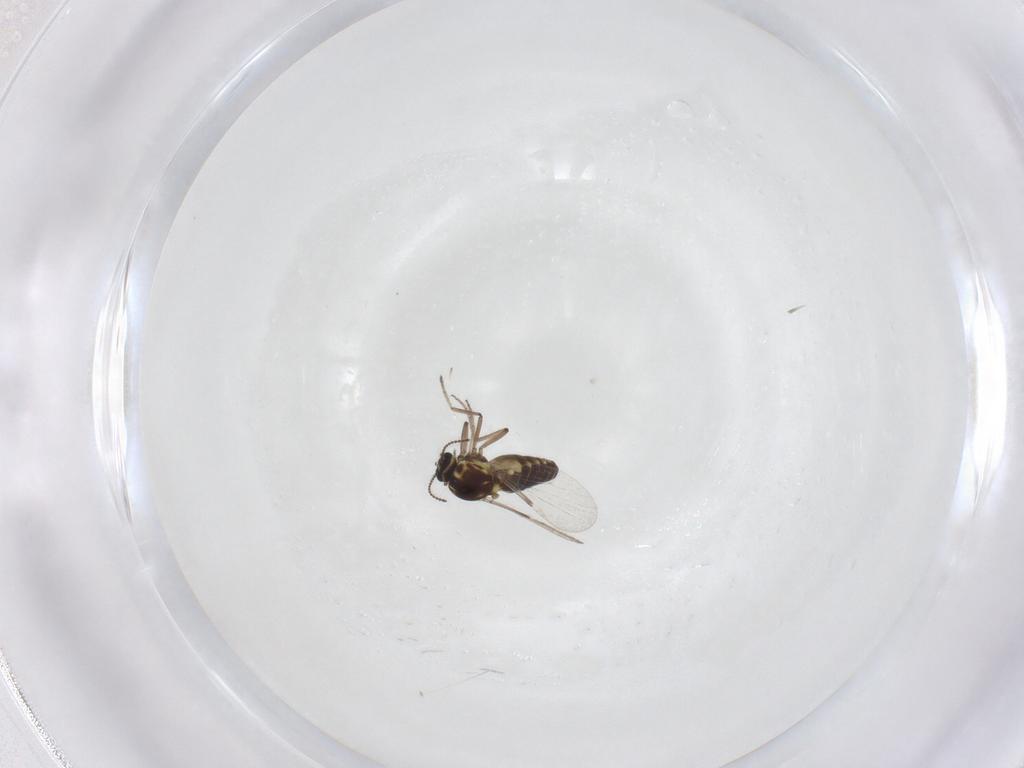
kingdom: Animalia
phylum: Arthropoda
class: Insecta
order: Diptera
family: Ceratopogonidae
